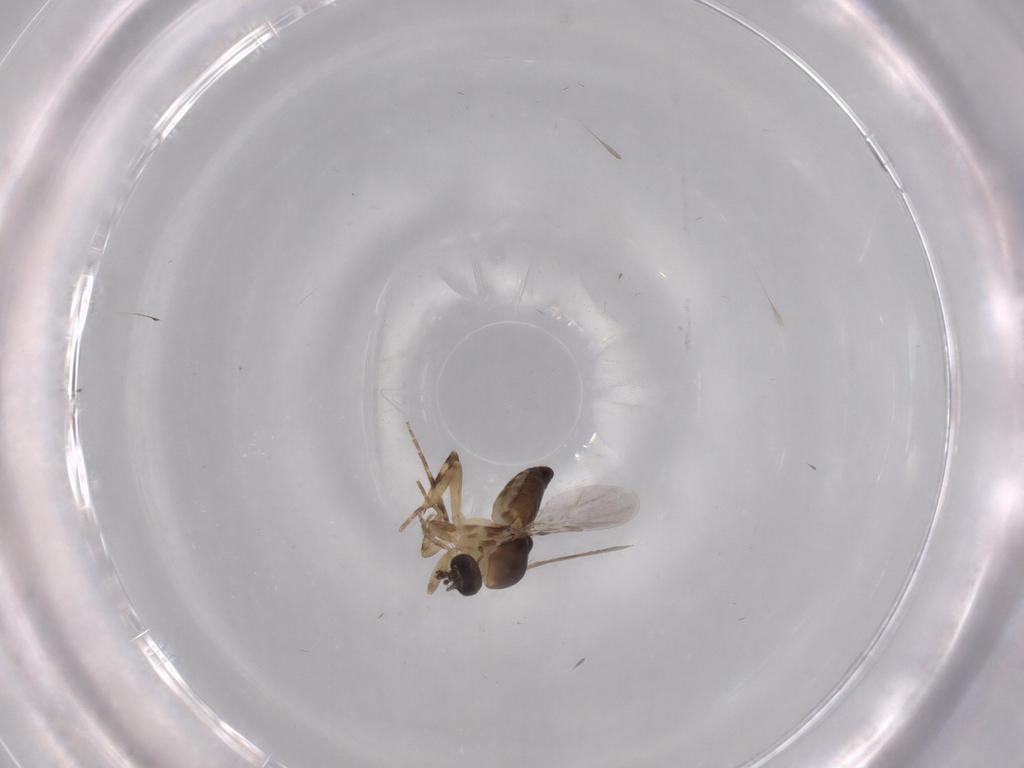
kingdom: Animalia
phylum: Arthropoda
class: Insecta
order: Diptera
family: Ceratopogonidae
